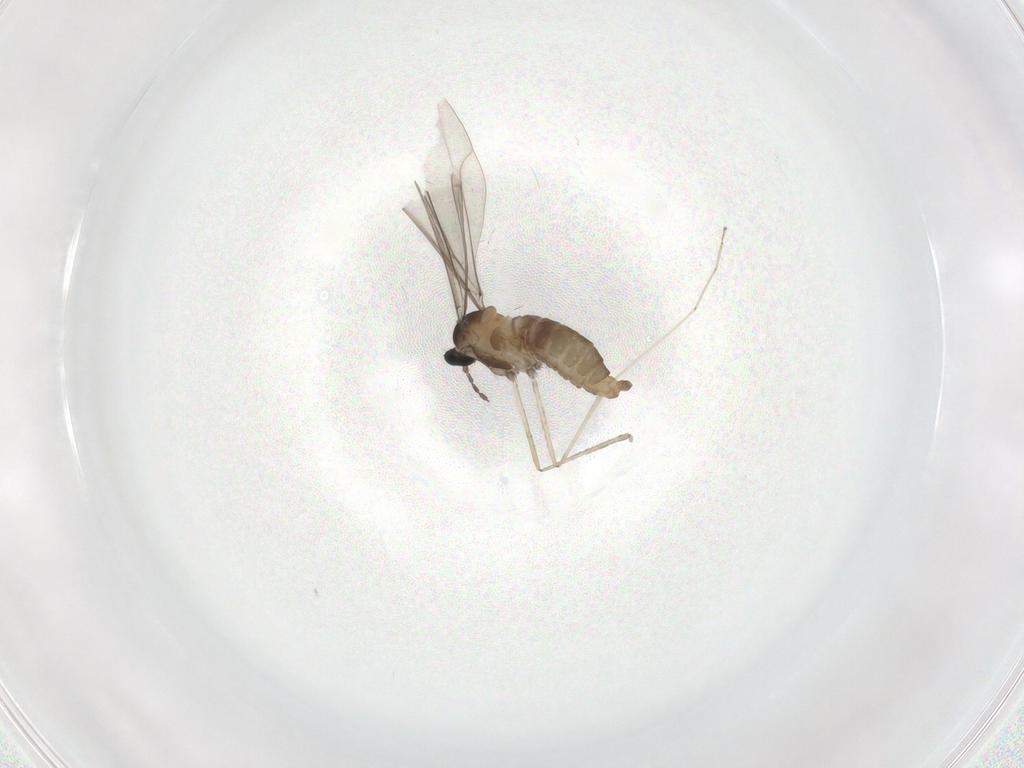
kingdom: Animalia
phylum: Arthropoda
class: Insecta
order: Diptera
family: Cecidomyiidae
